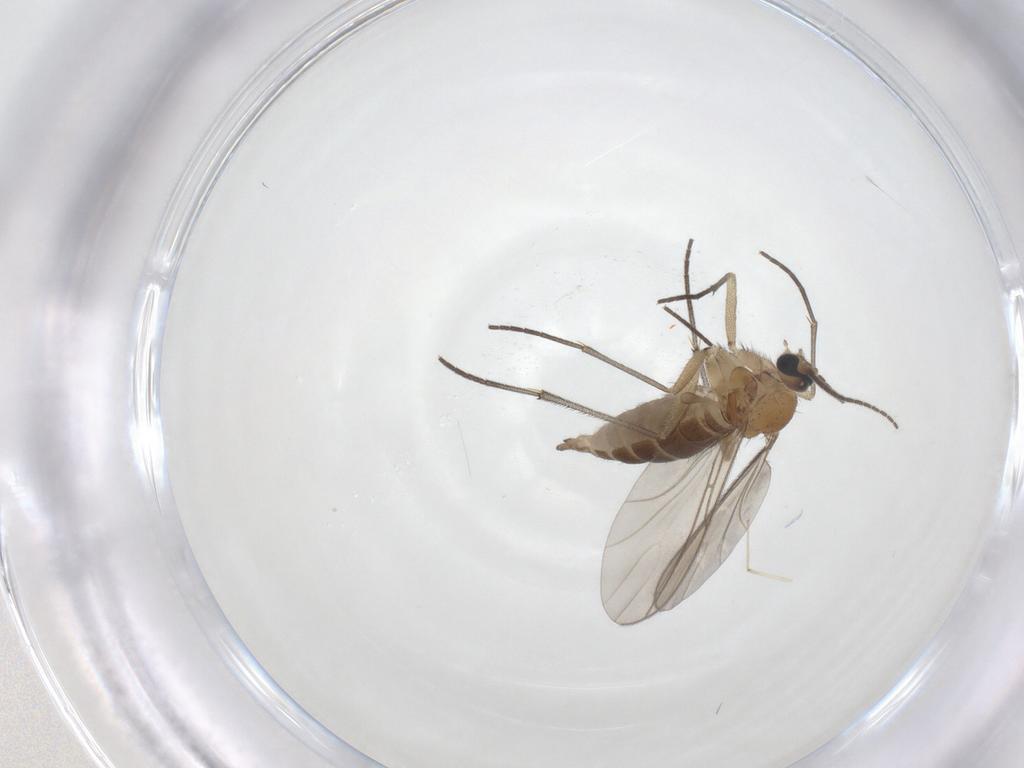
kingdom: Animalia
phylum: Arthropoda
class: Insecta
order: Diptera
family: Sciaridae
